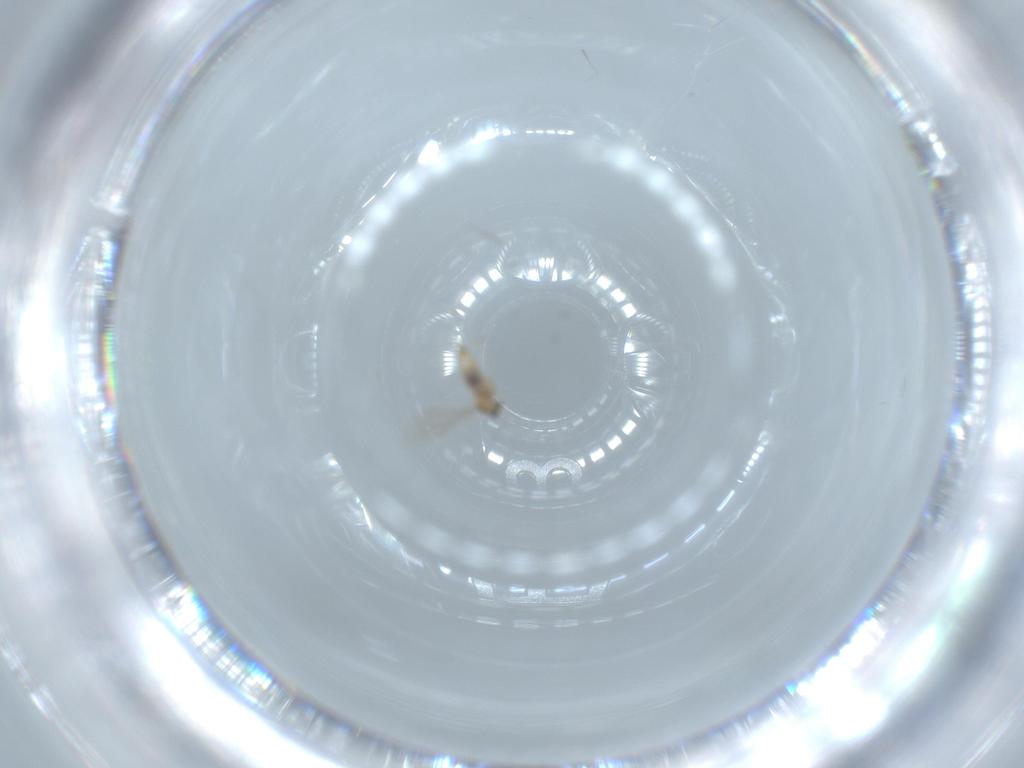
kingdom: Animalia
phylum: Arthropoda
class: Insecta
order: Diptera
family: Cecidomyiidae
